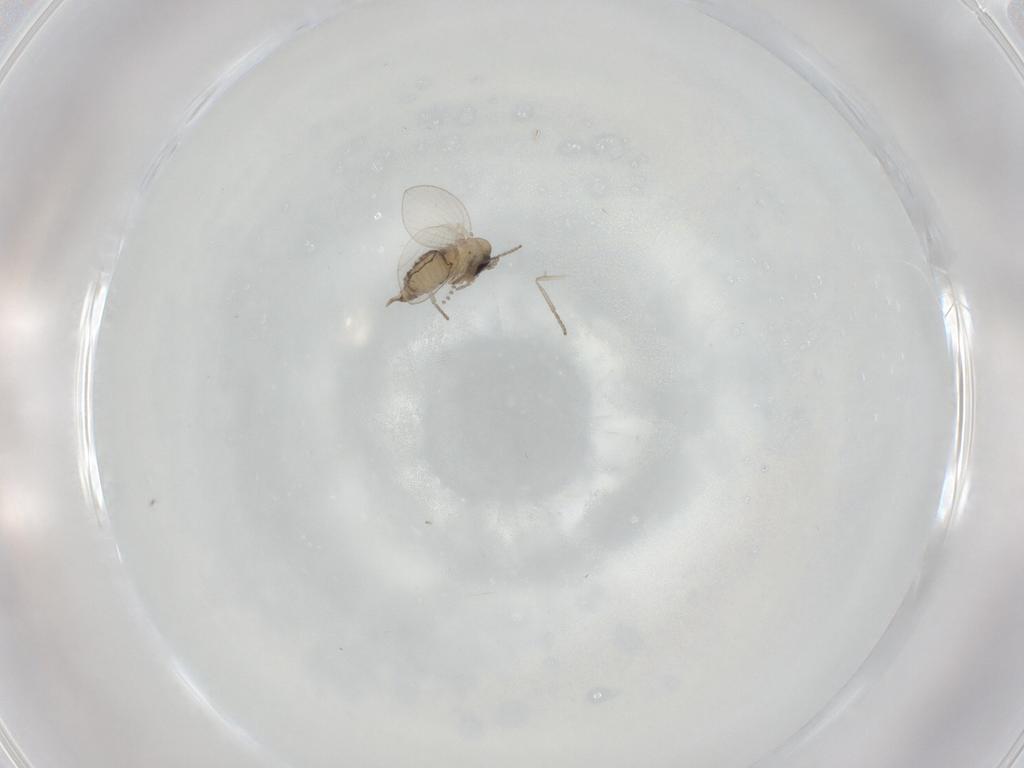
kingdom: Animalia
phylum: Arthropoda
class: Insecta
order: Diptera
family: Psychodidae
